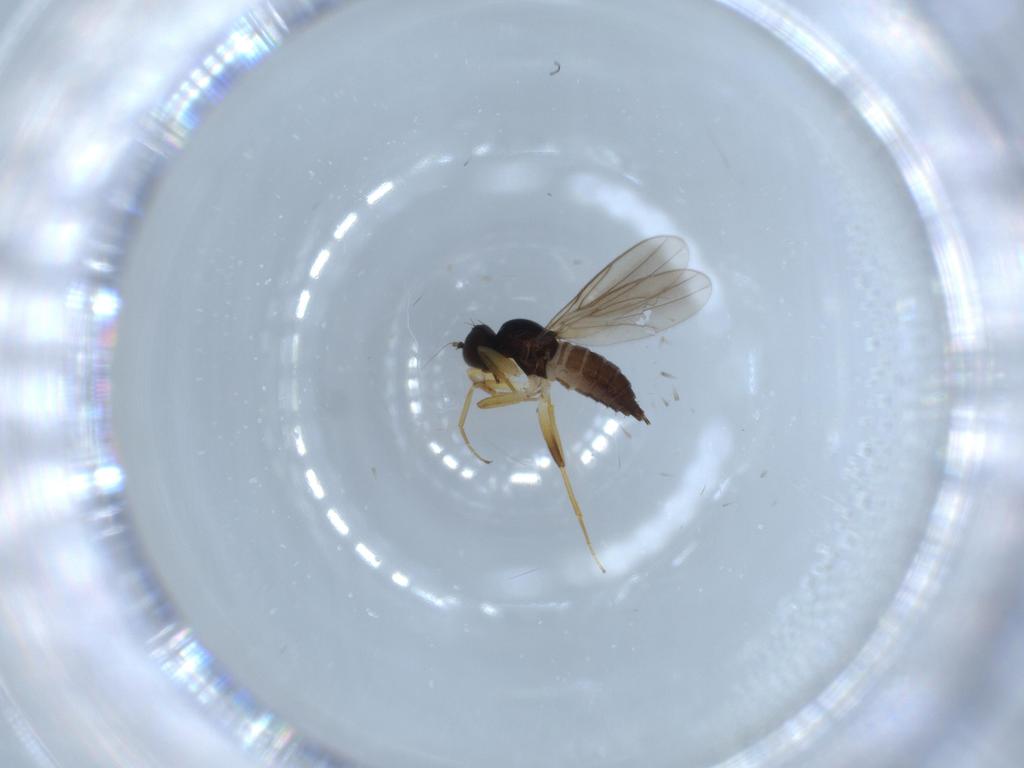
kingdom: Animalia
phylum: Arthropoda
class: Insecta
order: Diptera
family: Hybotidae
